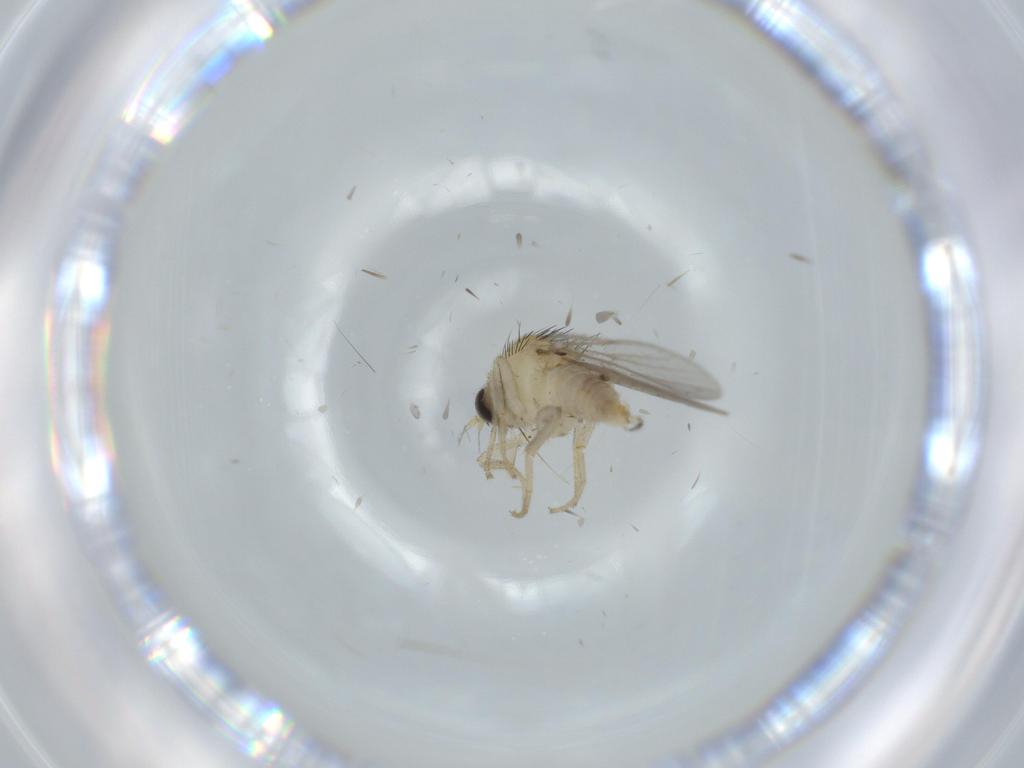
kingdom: Animalia
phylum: Arthropoda
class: Insecta
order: Diptera
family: Hybotidae
